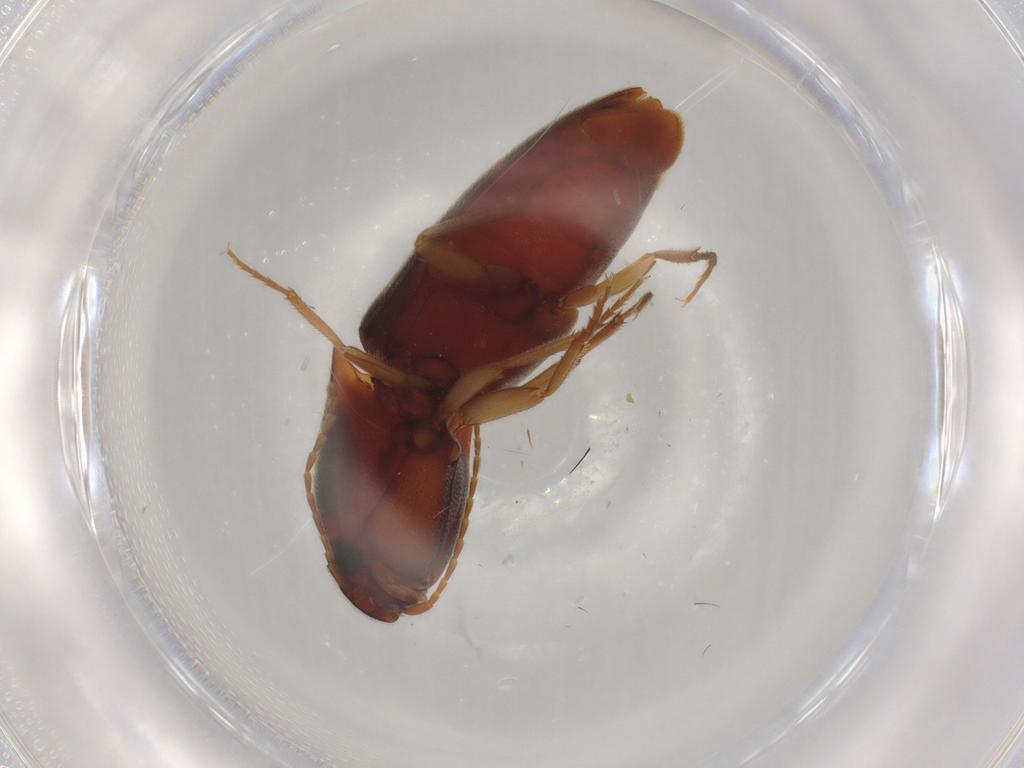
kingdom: Animalia
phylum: Arthropoda
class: Insecta
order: Coleoptera
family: Elateridae
